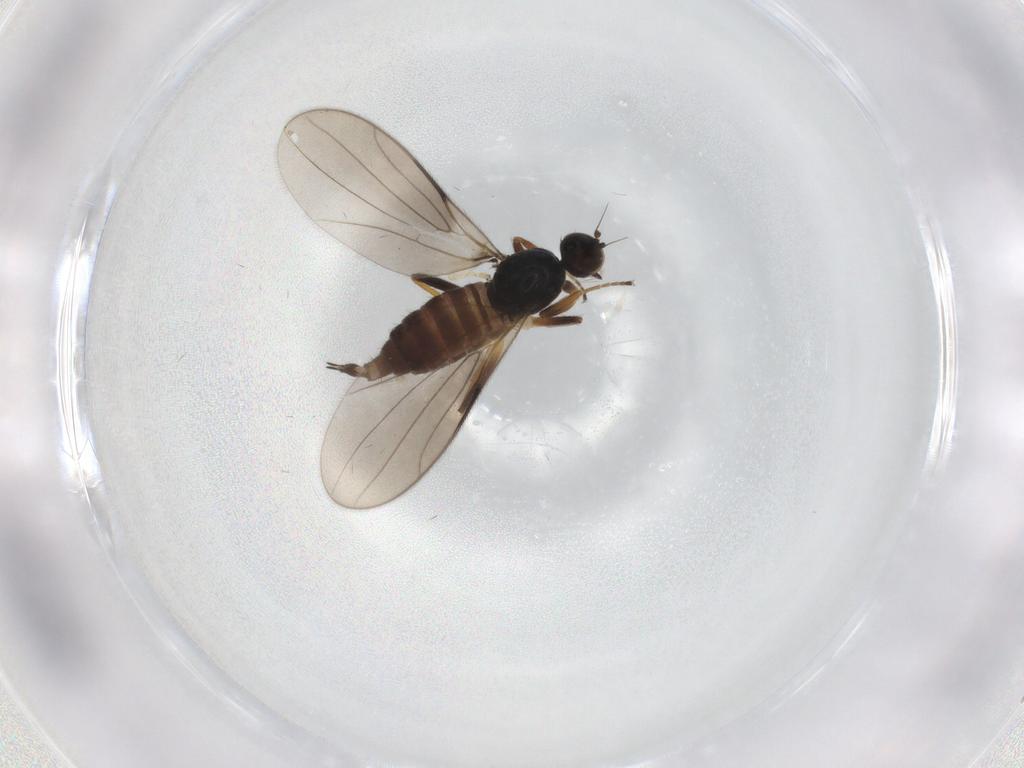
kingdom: Animalia
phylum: Arthropoda
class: Insecta
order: Diptera
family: Hybotidae
